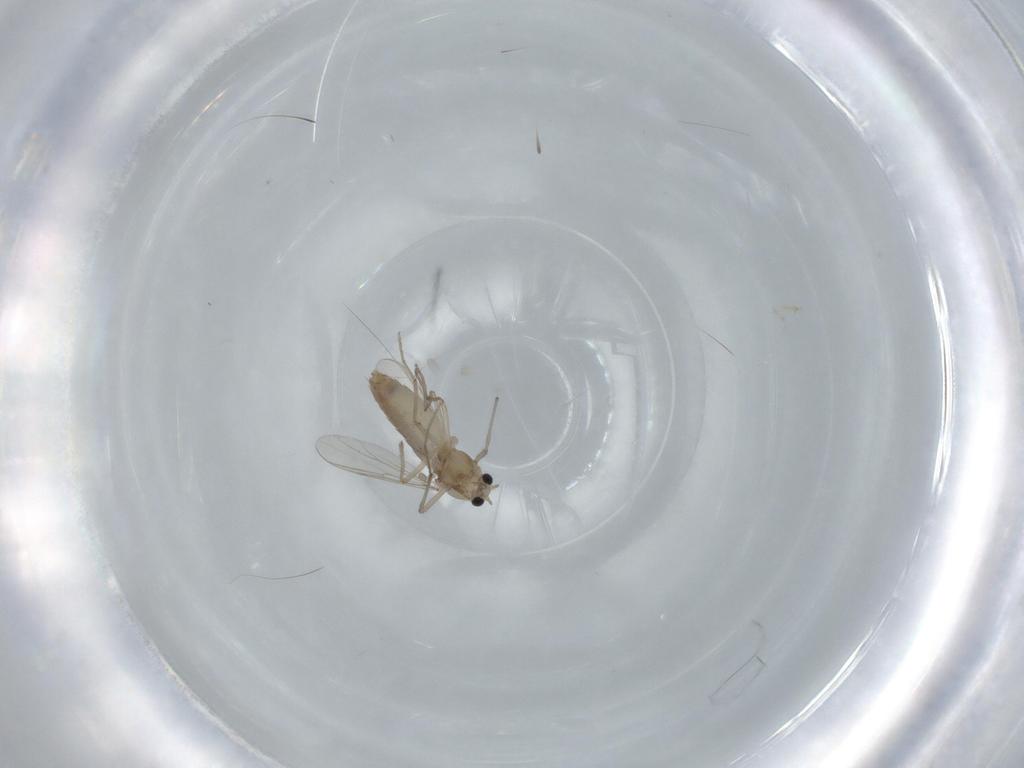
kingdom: Animalia
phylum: Arthropoda
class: Insecta
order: Diptera
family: Chironomidae
